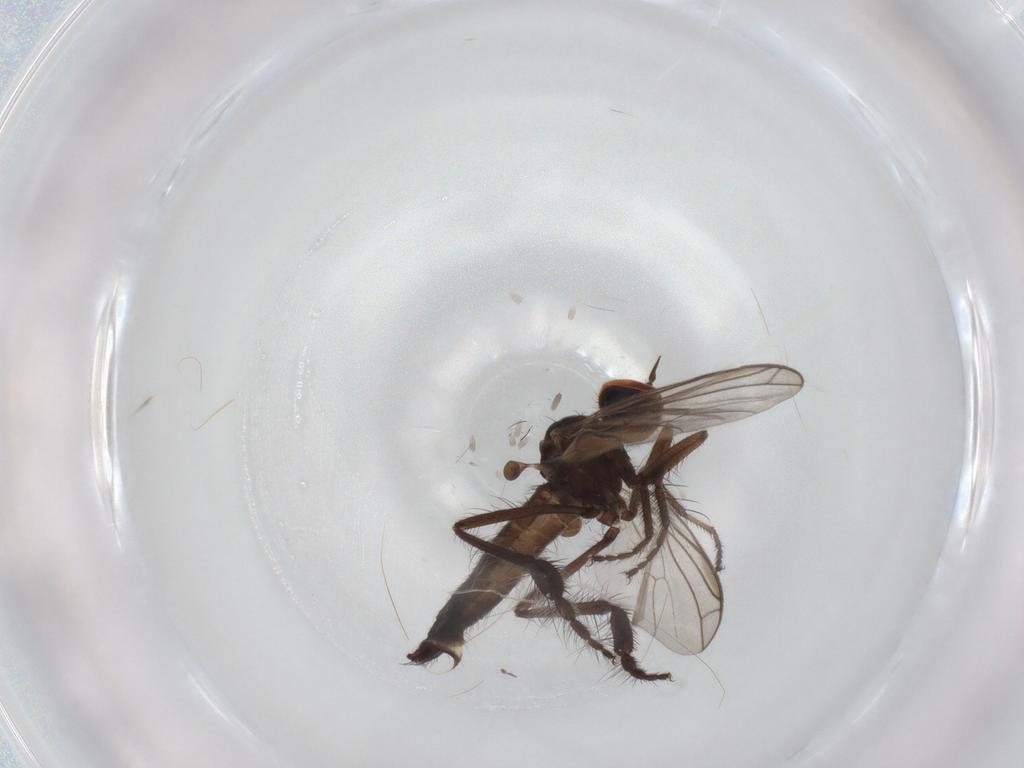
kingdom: Animalia
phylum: Arthropoda
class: Insecta
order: Diptera
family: Empididae
